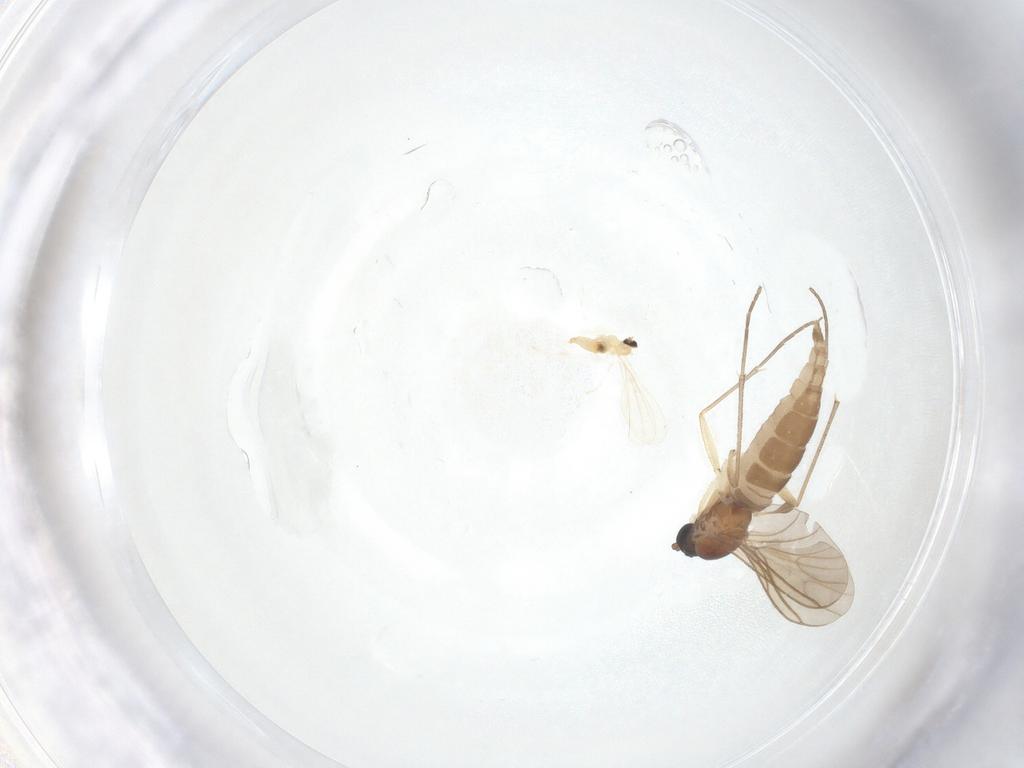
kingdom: Animalia
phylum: Arthropoda
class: Insecta
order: Diptera
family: Sciaridae
